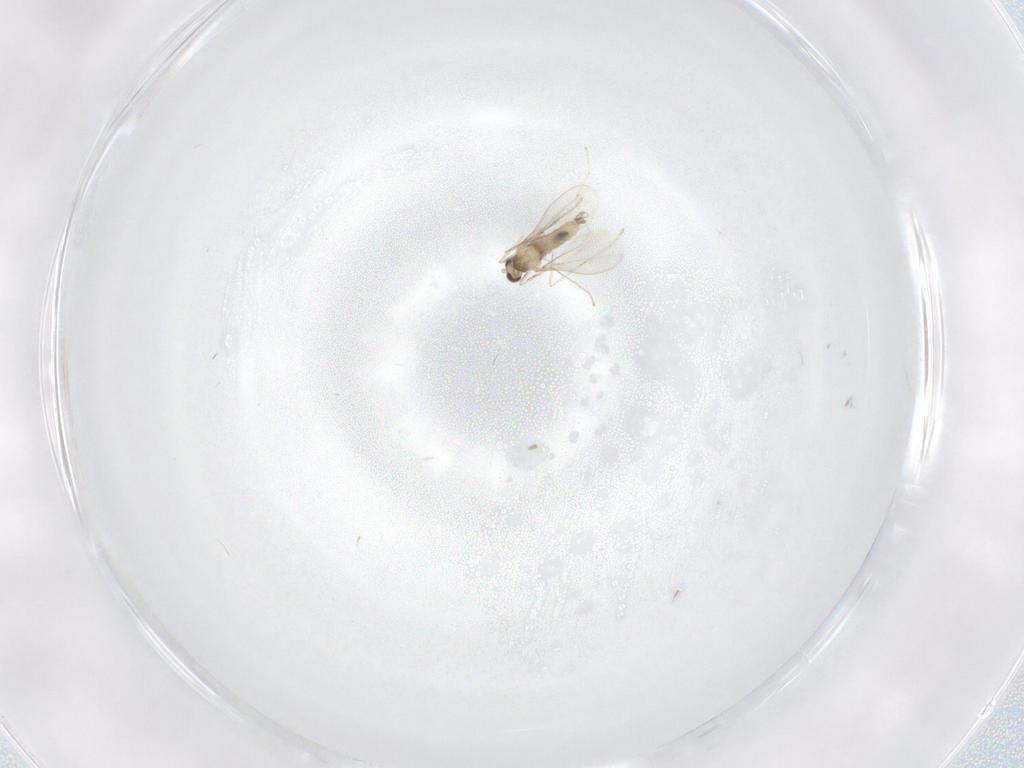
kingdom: Animalia
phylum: Arthropoda
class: Insecta
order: Diptera
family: Cecidomyiidae
